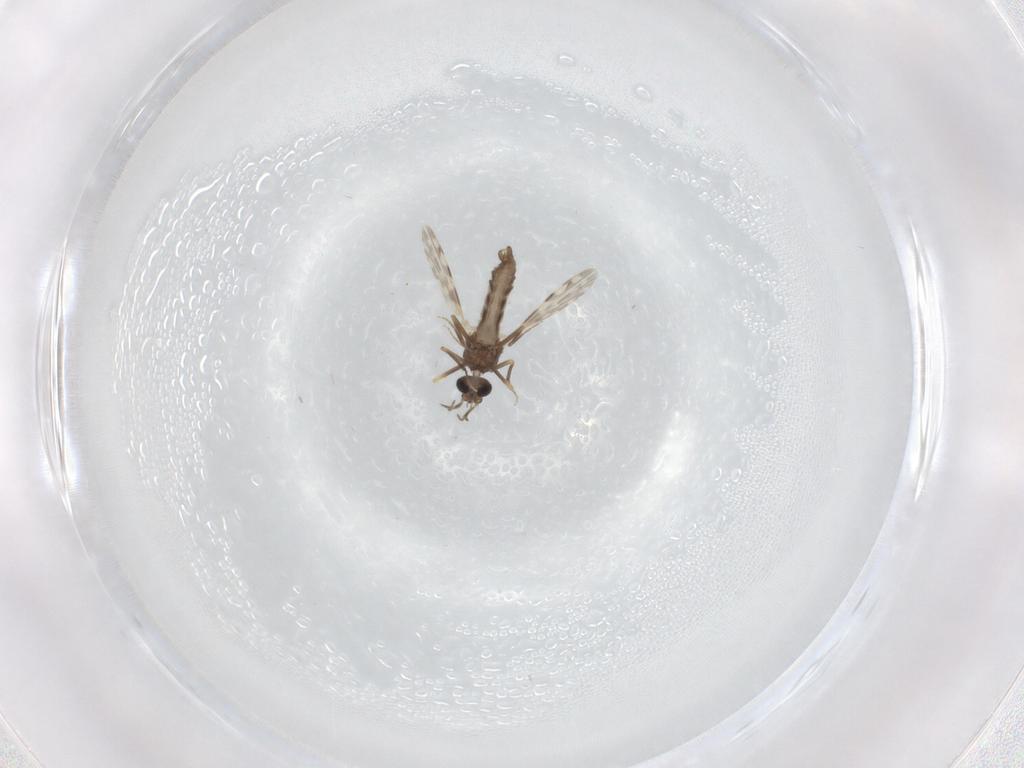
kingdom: Animalia
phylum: Arthropoda
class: Insecta
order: Diptera
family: Ceratopogonidae
